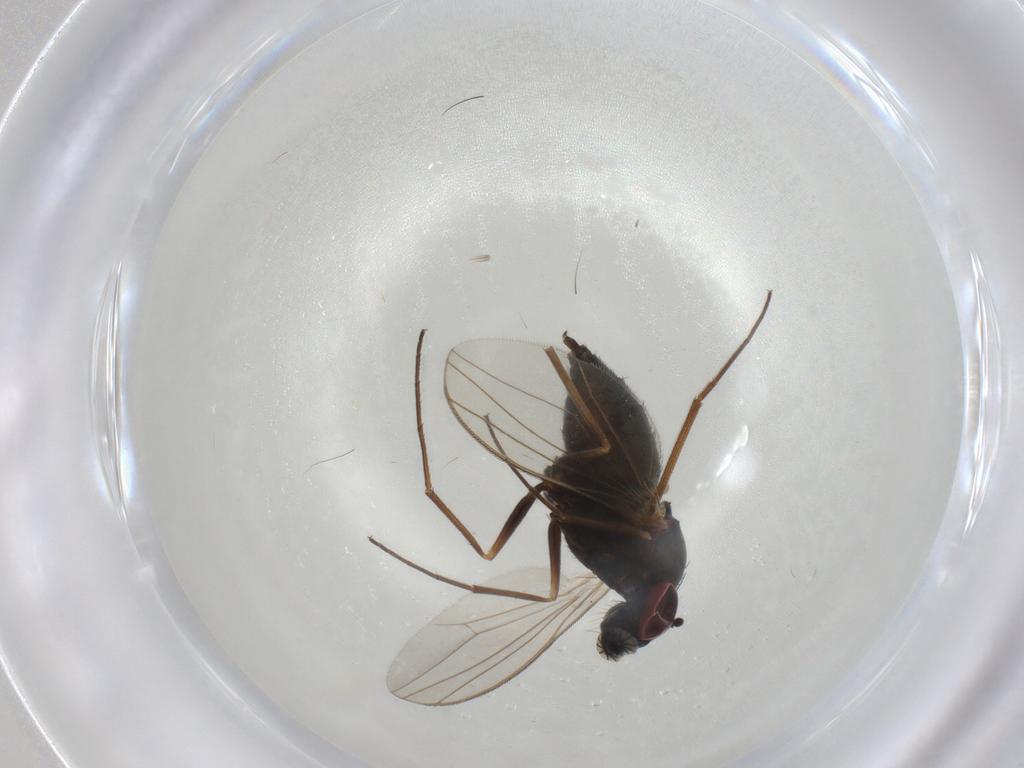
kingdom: Animalia
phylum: Arthropoda
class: Insecta
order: Diptera
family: Dolichopodidae
